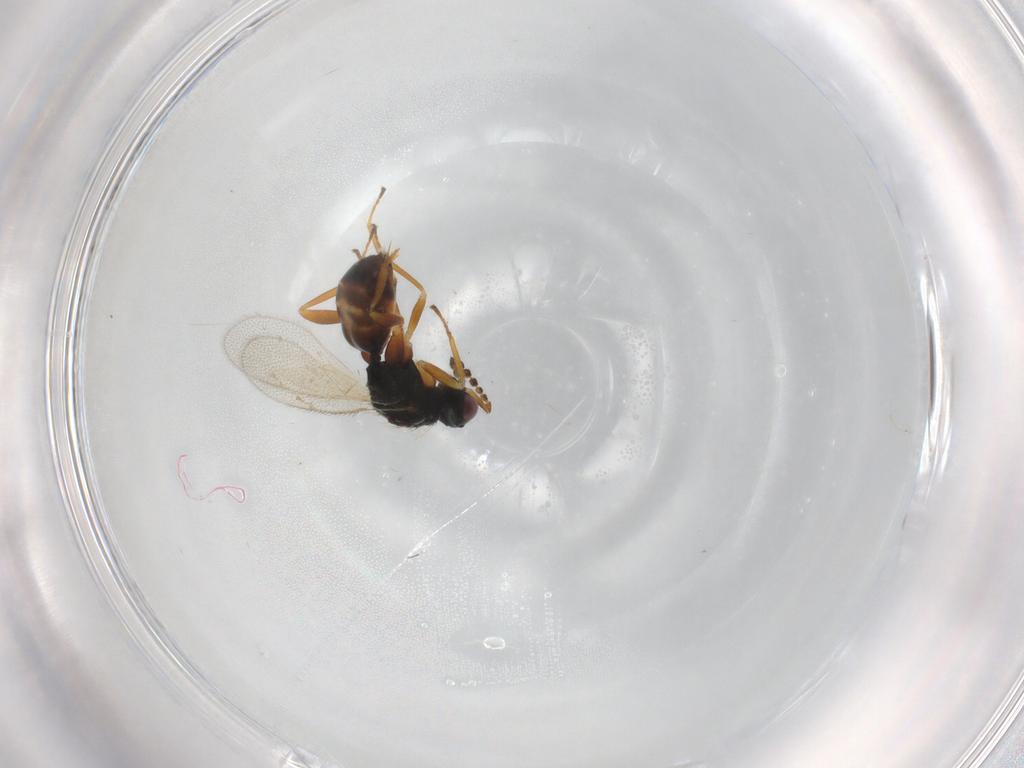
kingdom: Animalia
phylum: Arthropoda
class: Insecta
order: Hymenoptera
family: Eulophidae
